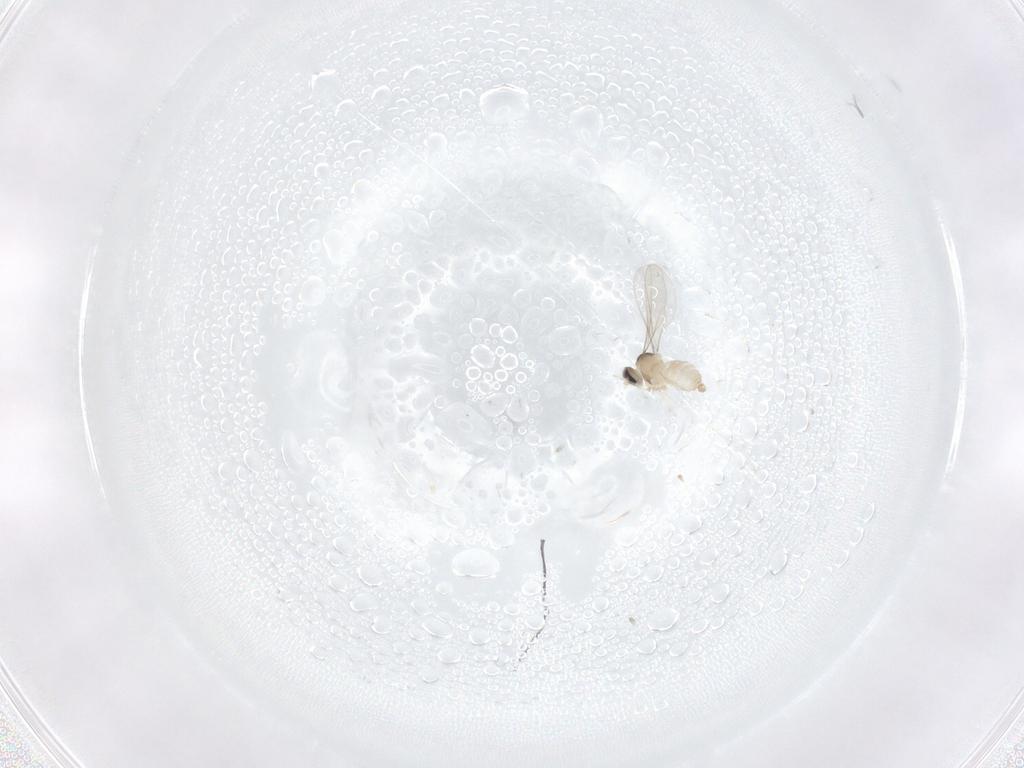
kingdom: Animalia
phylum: Arthropoda
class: Insecta
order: Diptera
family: Cecidomyiidae
